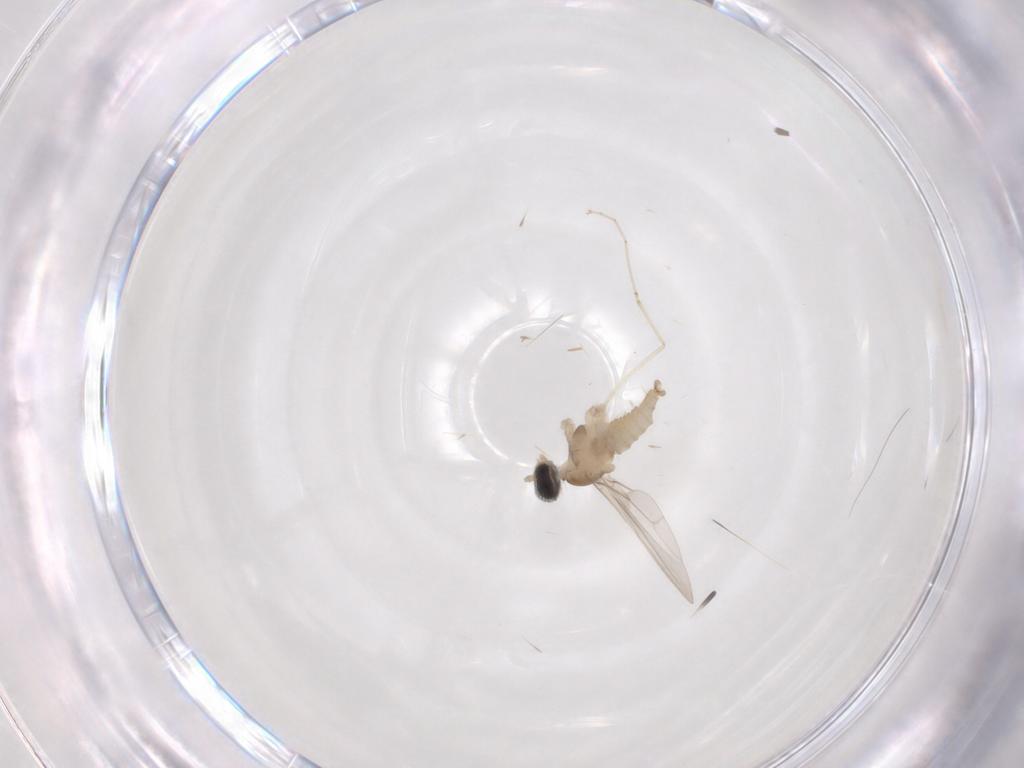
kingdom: Animalia
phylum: Arthropoda
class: Insecta
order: Diptera
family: Cecidomyiidae
